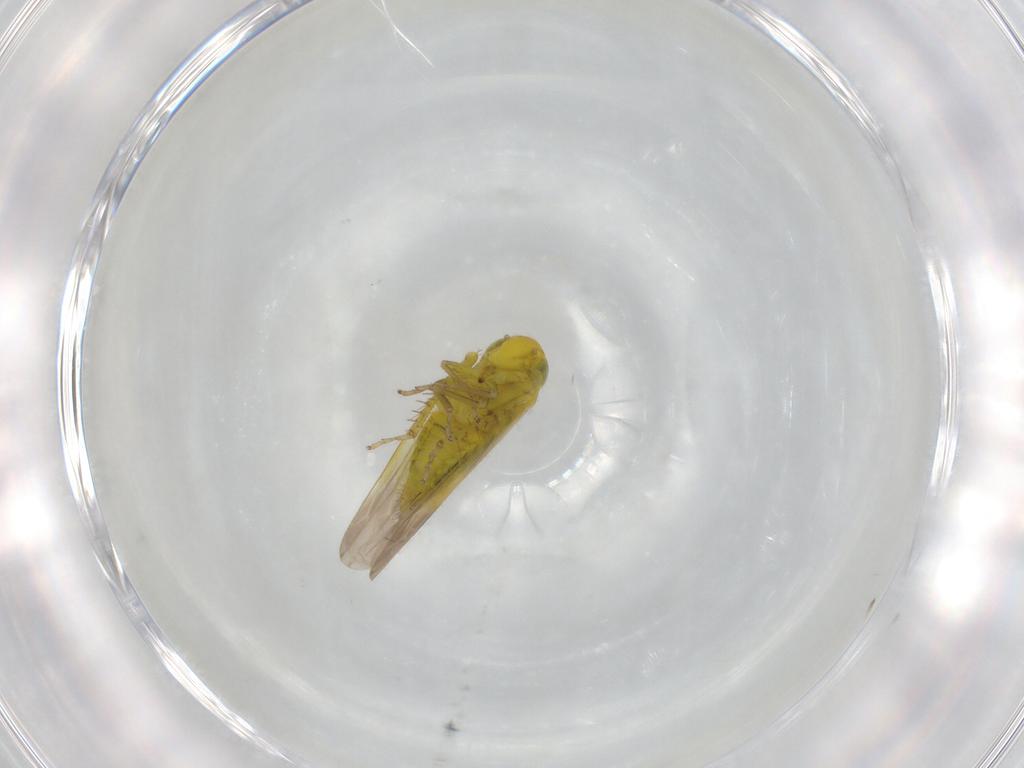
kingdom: Animalia
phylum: Arthropoda
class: Insecta
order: Hemiptera
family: Cicadellidae
